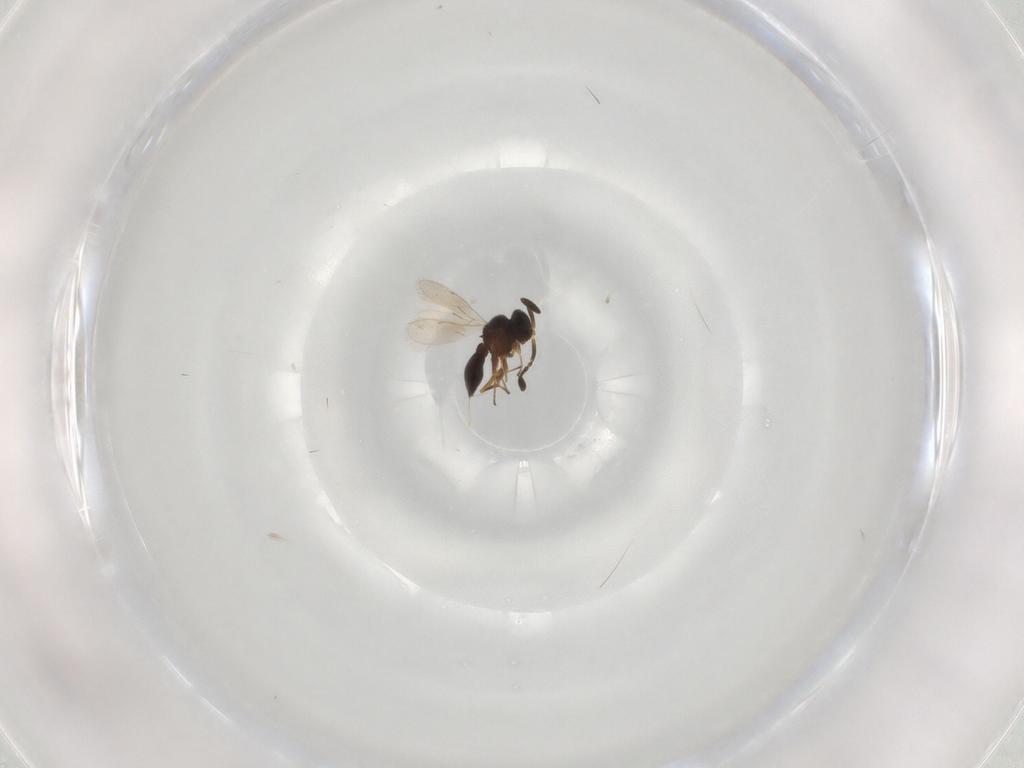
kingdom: Animalia
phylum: Arthropoda
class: Insecta
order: Hymenoptera
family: Scelionidae
